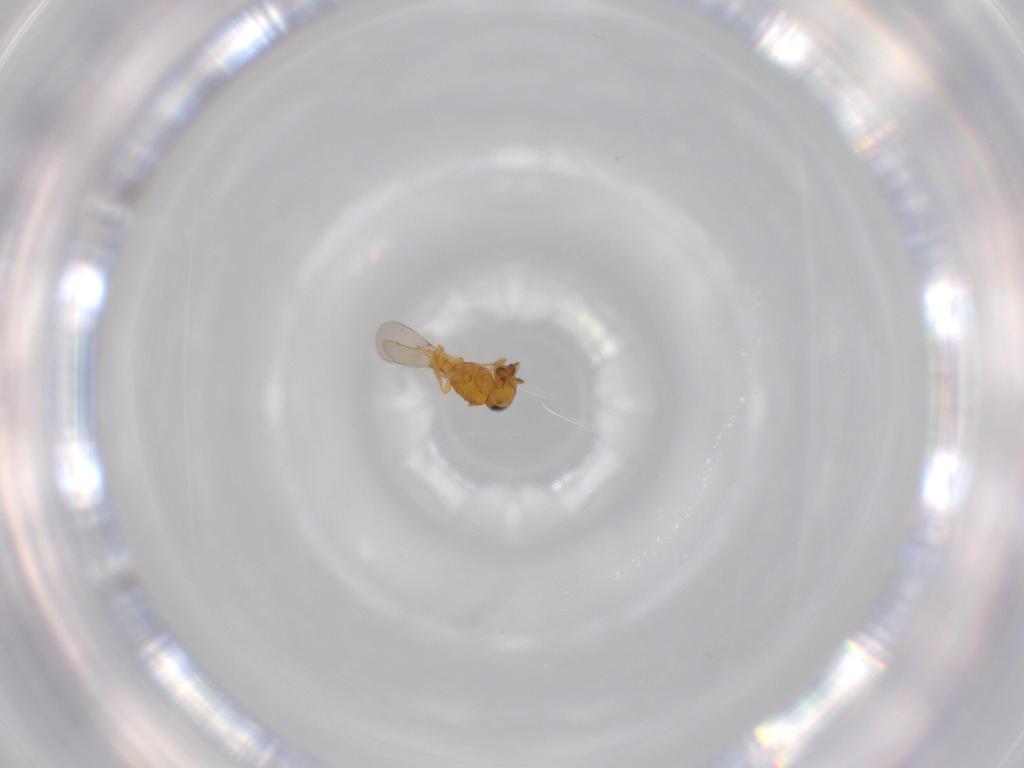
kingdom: Animalia
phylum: Arthropoda
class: Insecta
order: Hymenoptera
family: Scelionidae
